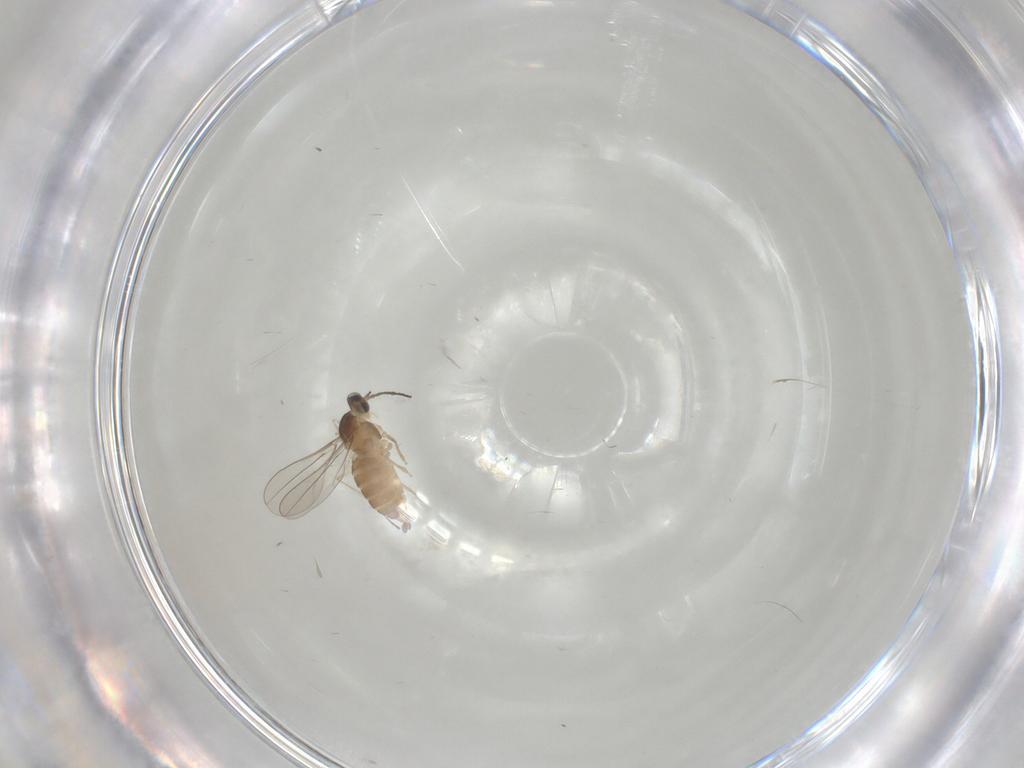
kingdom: Animalia
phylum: Arthropoda
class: Insecta
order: Diptera
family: Cecidomyiidae
